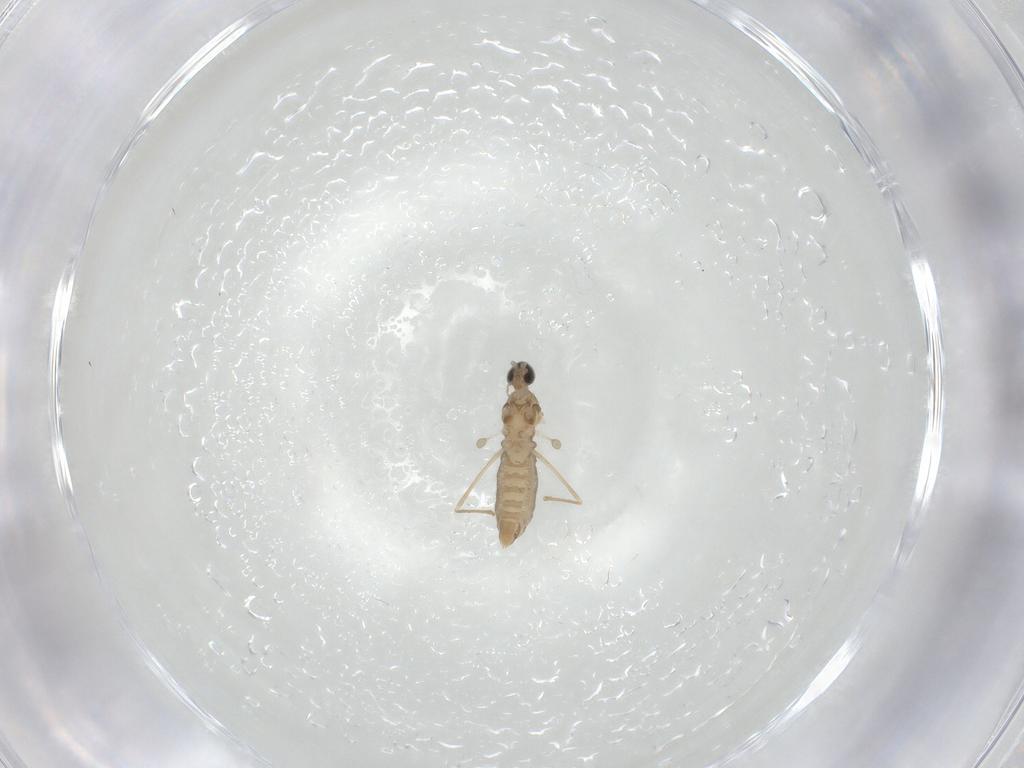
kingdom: Animalia
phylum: Arthropoda
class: Insecta
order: Diptera
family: Cecidomyiidae
